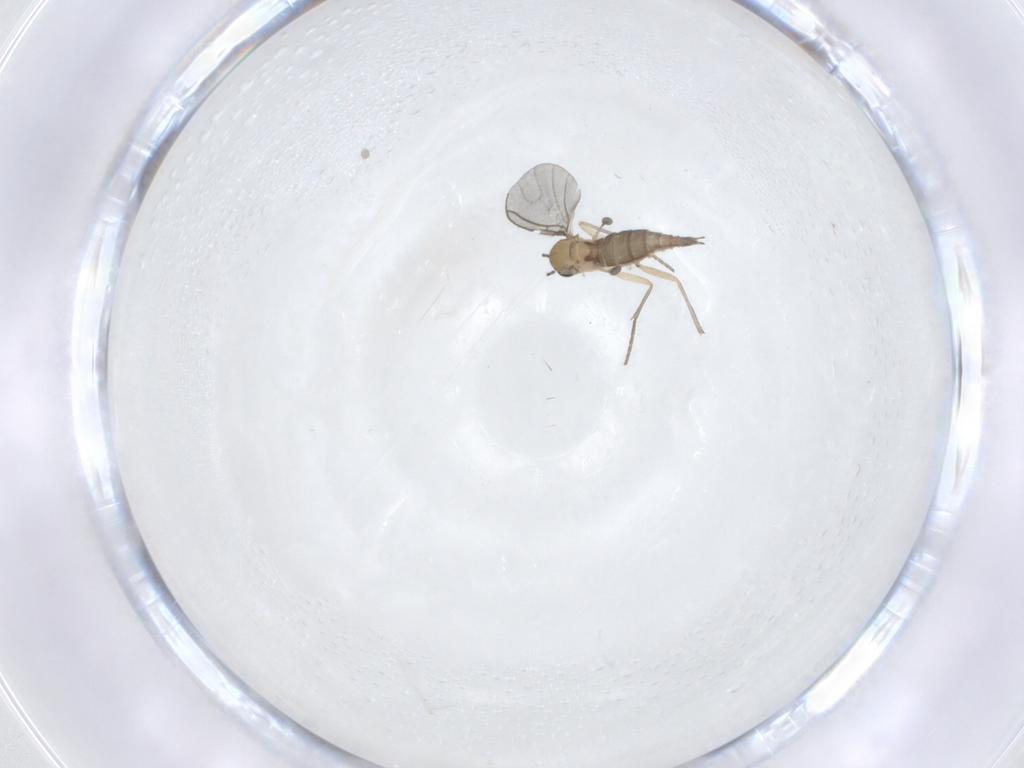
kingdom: Animalia
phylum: Arthropoda
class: Insecta
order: Diptera
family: Sciaridae
